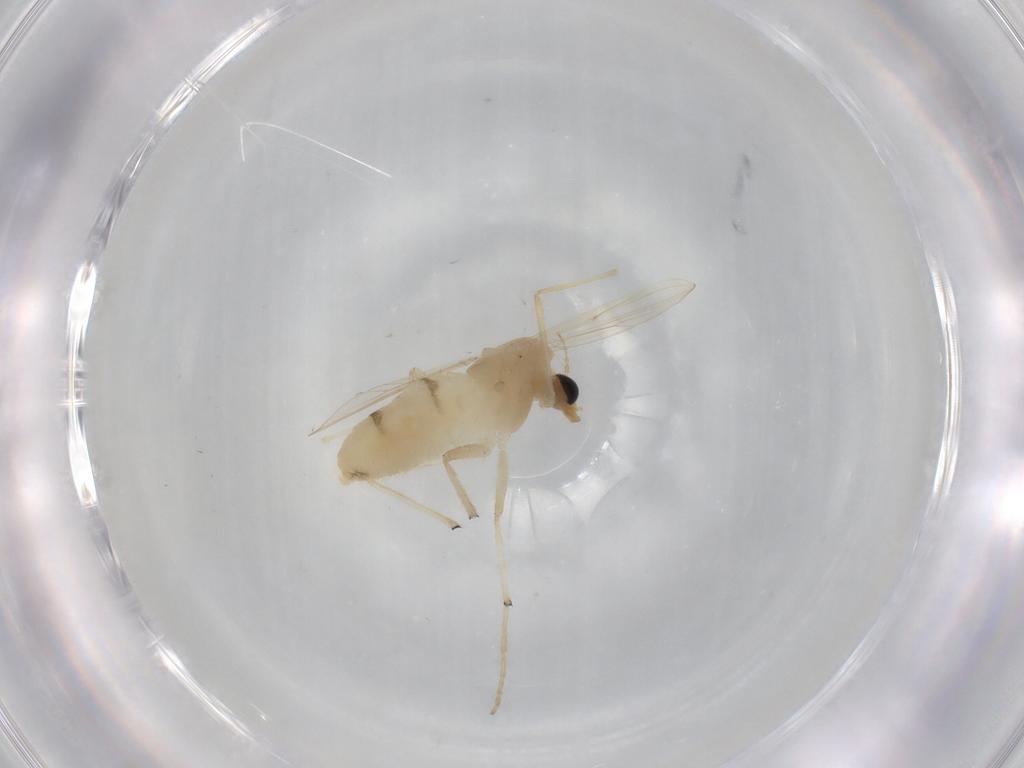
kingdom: Animalia
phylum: Arthropoda
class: Insecta
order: Diptera
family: Chironomidae
